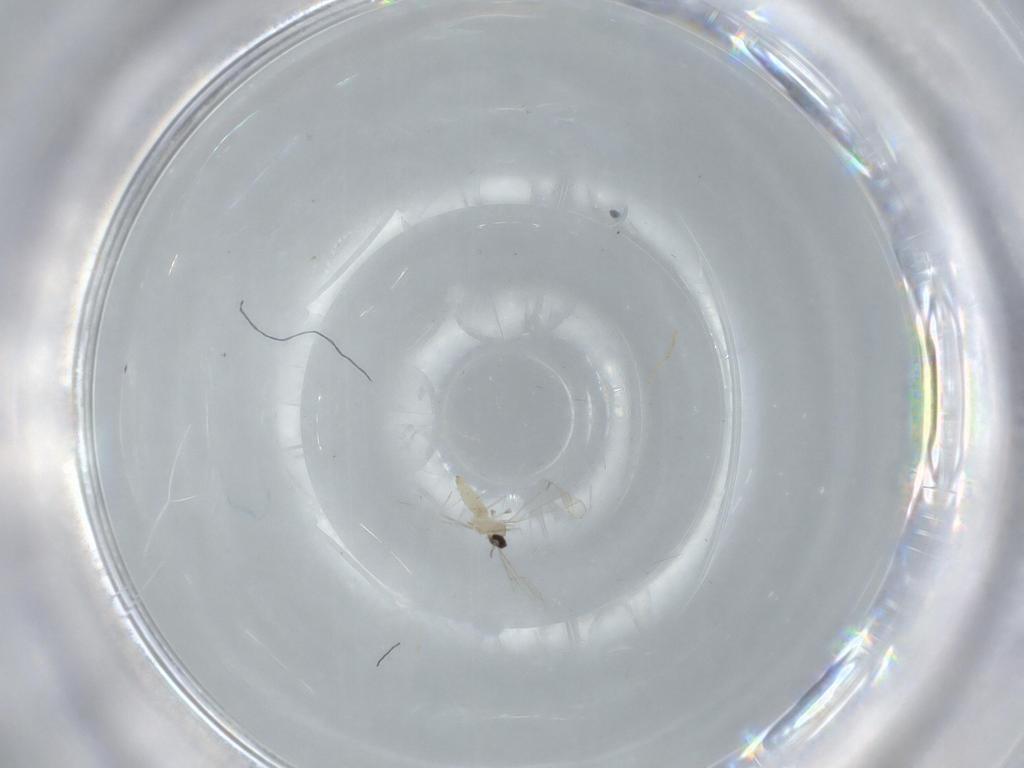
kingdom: Animalia
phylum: Arthropoda
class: Insecta
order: Diptera
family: Cecidomyiidae
